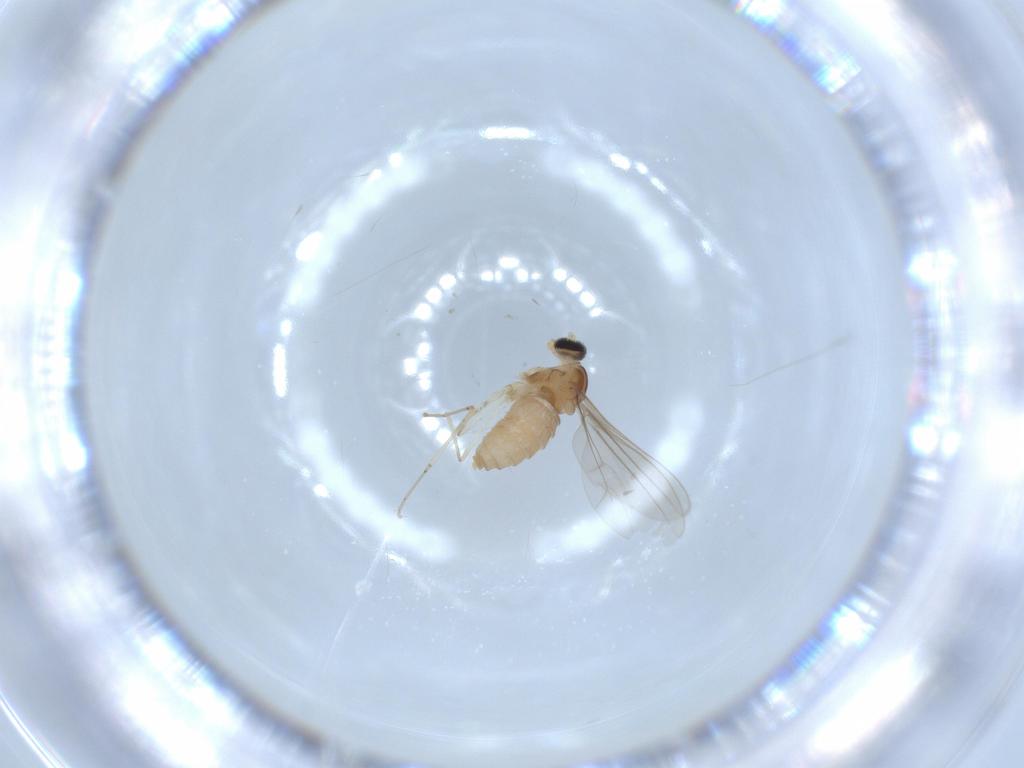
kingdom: Animalia
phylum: Arthropoda
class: Insecta
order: Diptera
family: Cecidomyiidae
